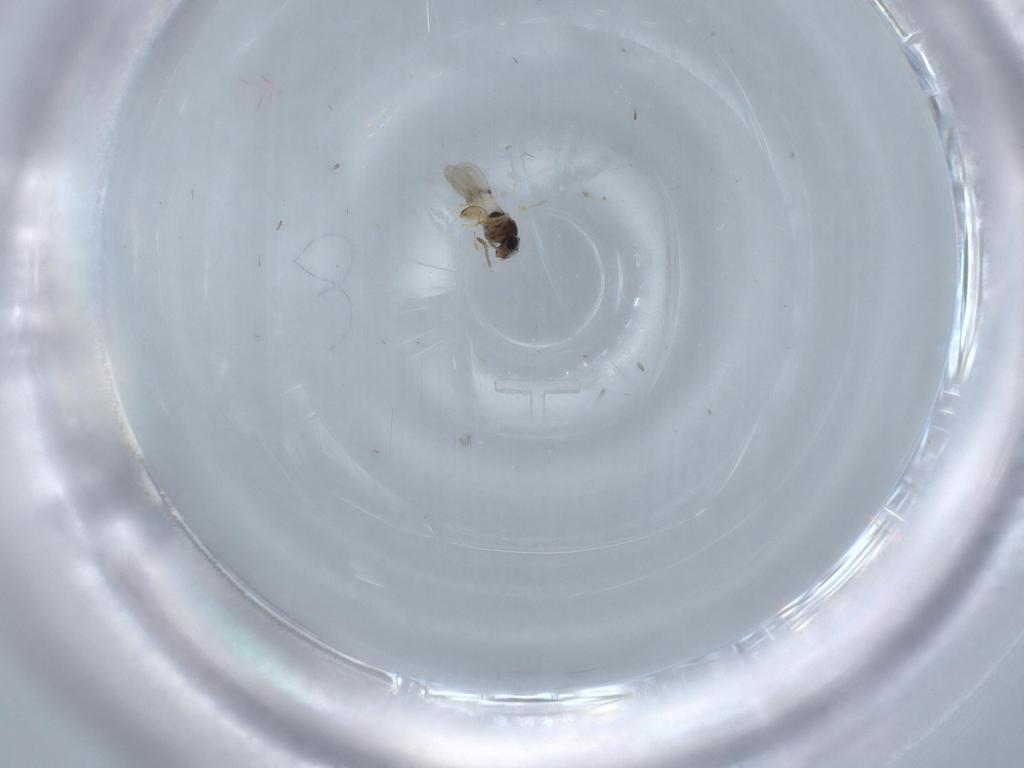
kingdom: Animalia
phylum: Arthropoda
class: Insecta
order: Hymenoptera
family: Scelionidae
